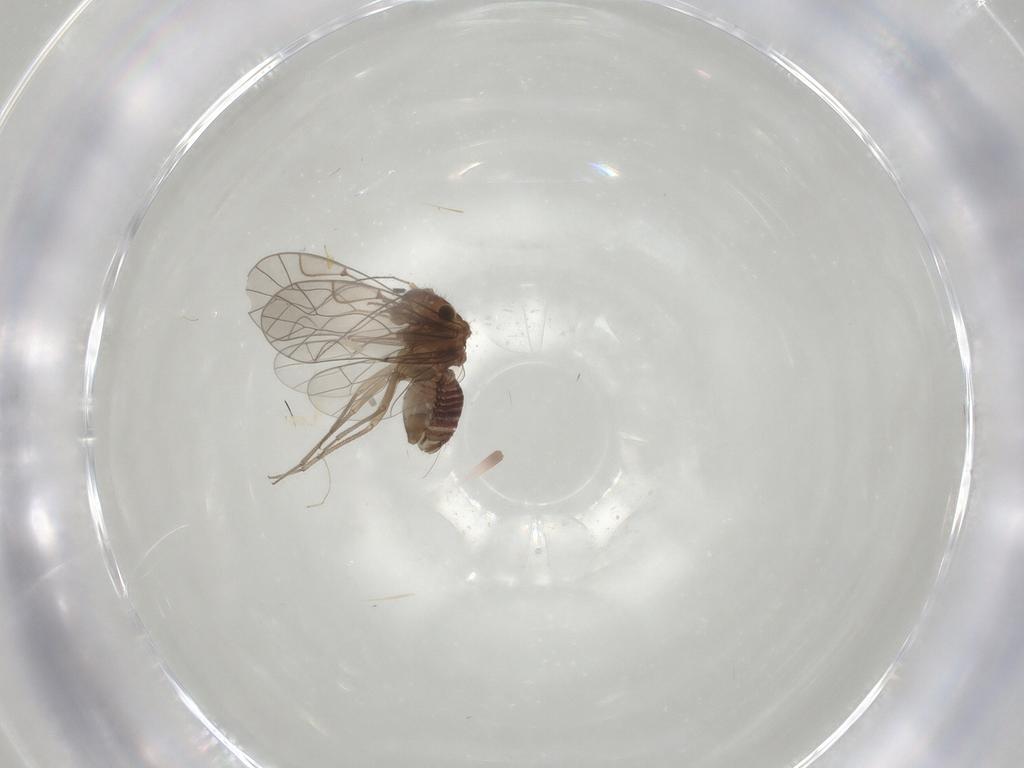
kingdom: Animalia
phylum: Arthropoda
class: Insecta
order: Psocodea
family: Lachesillidae
